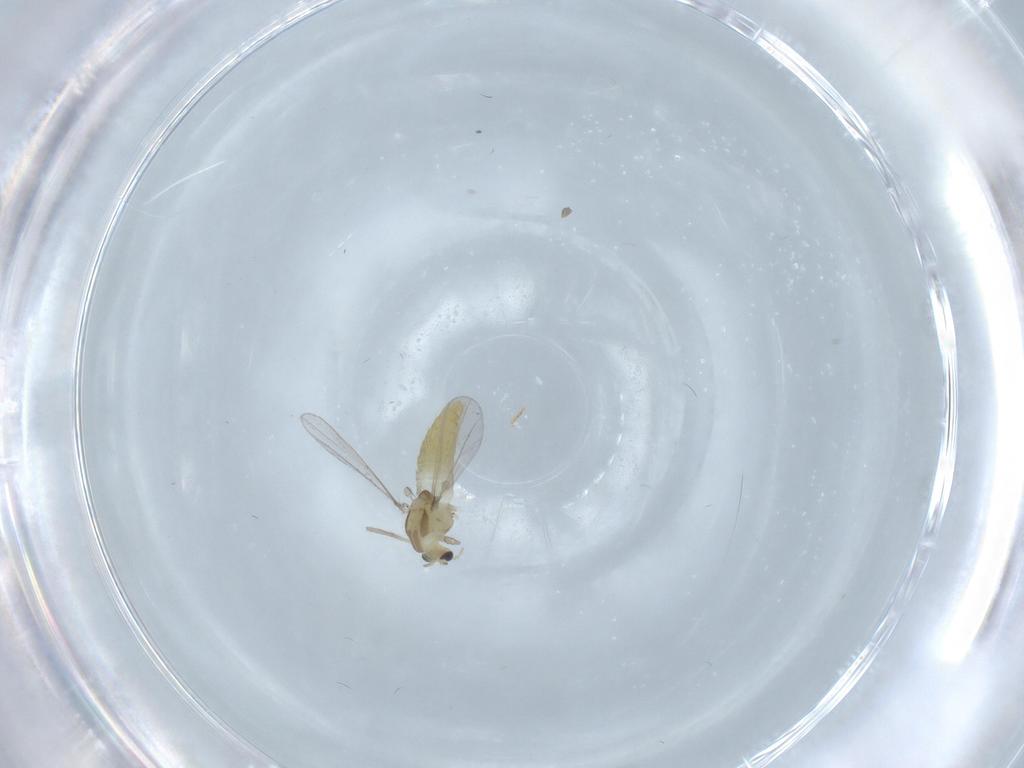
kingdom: Animalia
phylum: Arthropoda
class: Insecta
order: Diptera
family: Chironomidae
